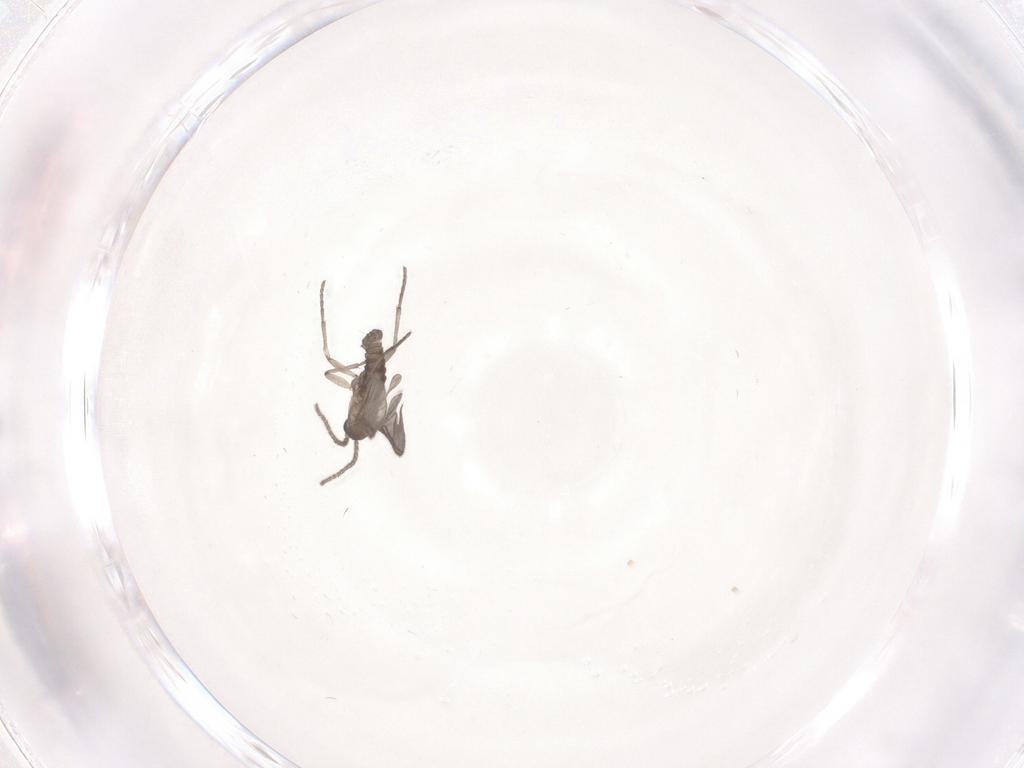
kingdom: Animalia
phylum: Arthropoda
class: Insecta
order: Diptera
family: Sciaridae
